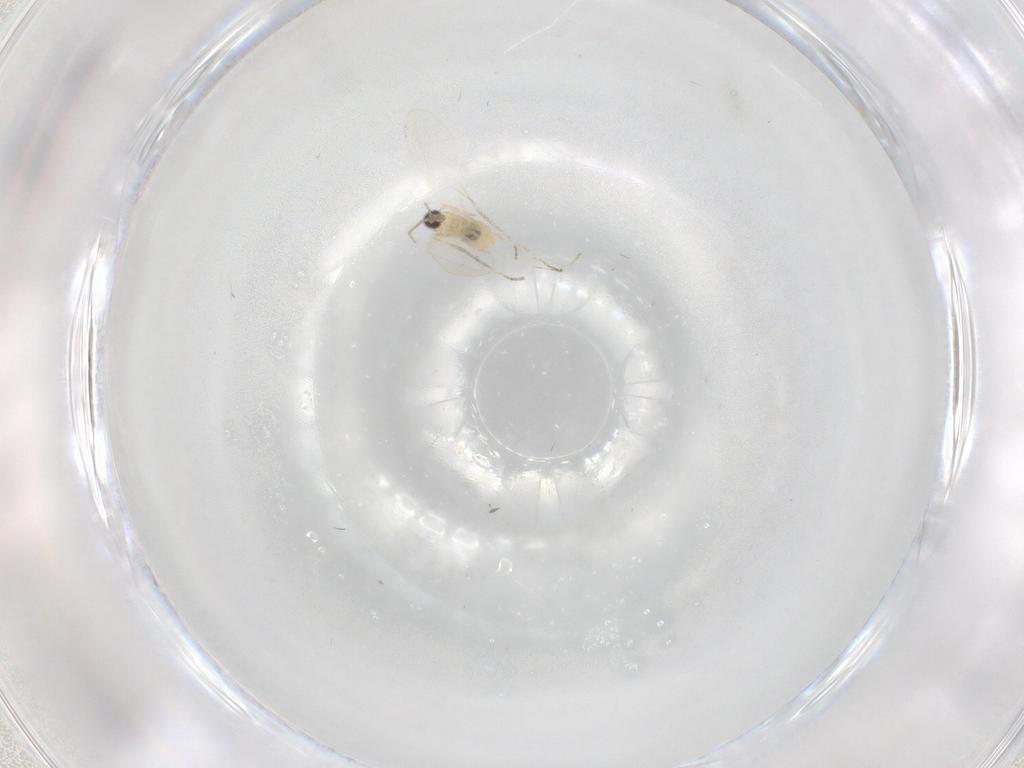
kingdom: Animalia
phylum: Arthropoda
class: Insecta
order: Diptera
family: Cecidomyiidae
